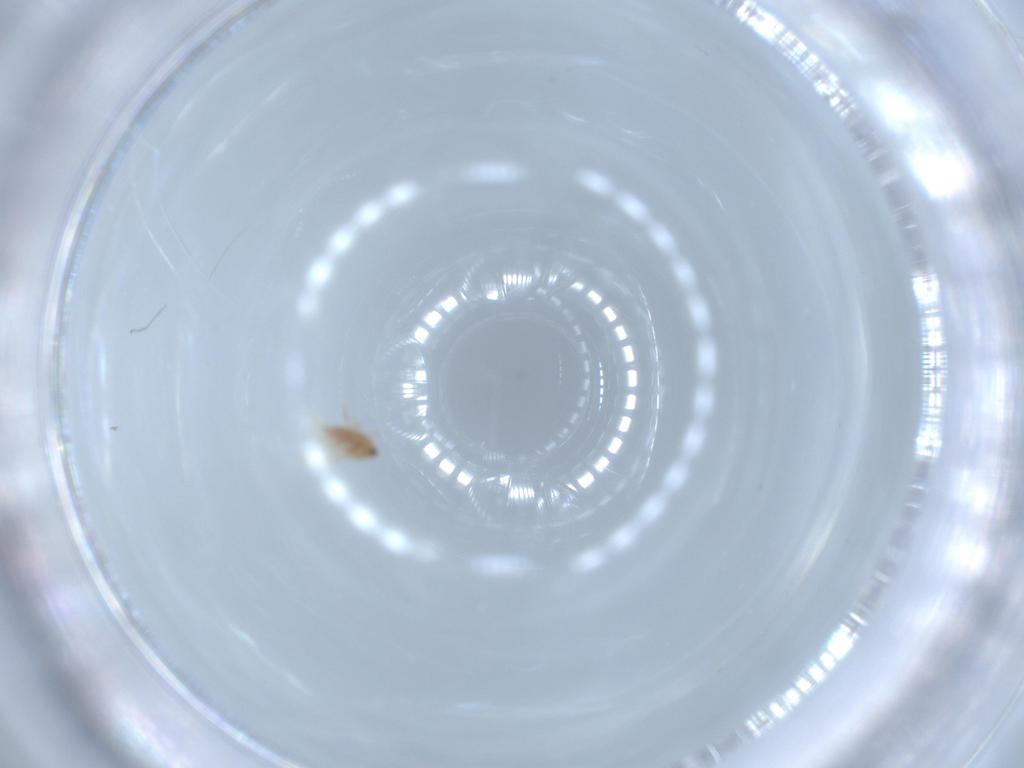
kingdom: Animalia
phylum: Arthropoda
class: Insecta
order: Hemiptera
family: Diaspididae
